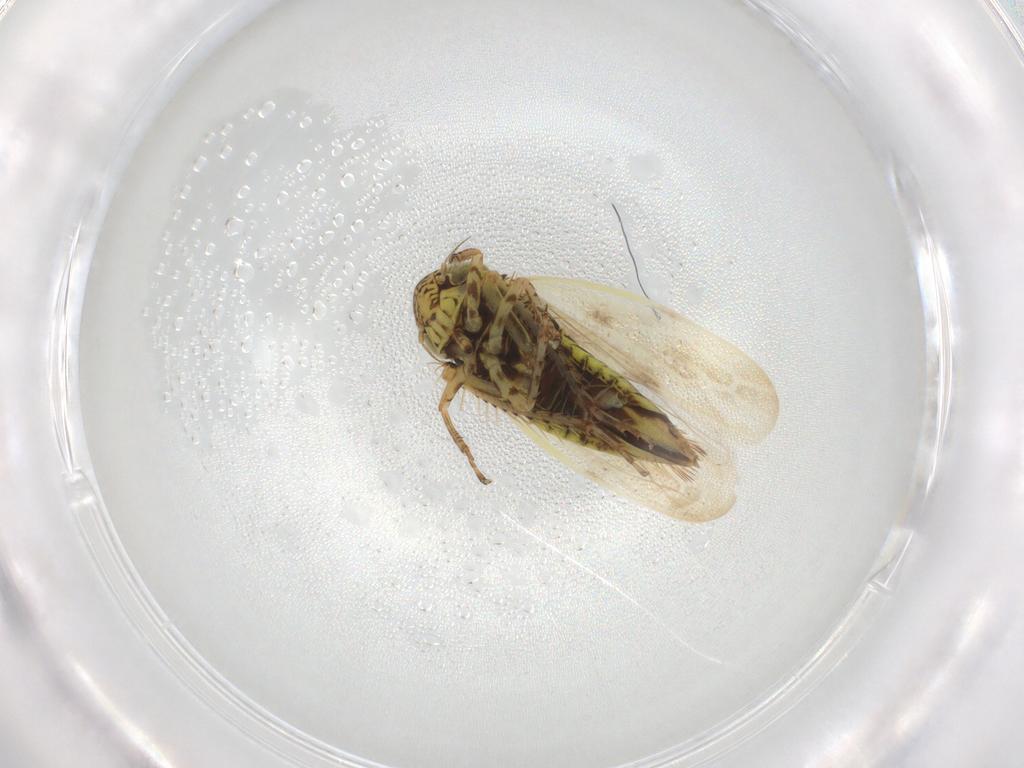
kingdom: Animalia
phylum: Arthropoda
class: Insecta
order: Hemiptera
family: Cicadellidae
